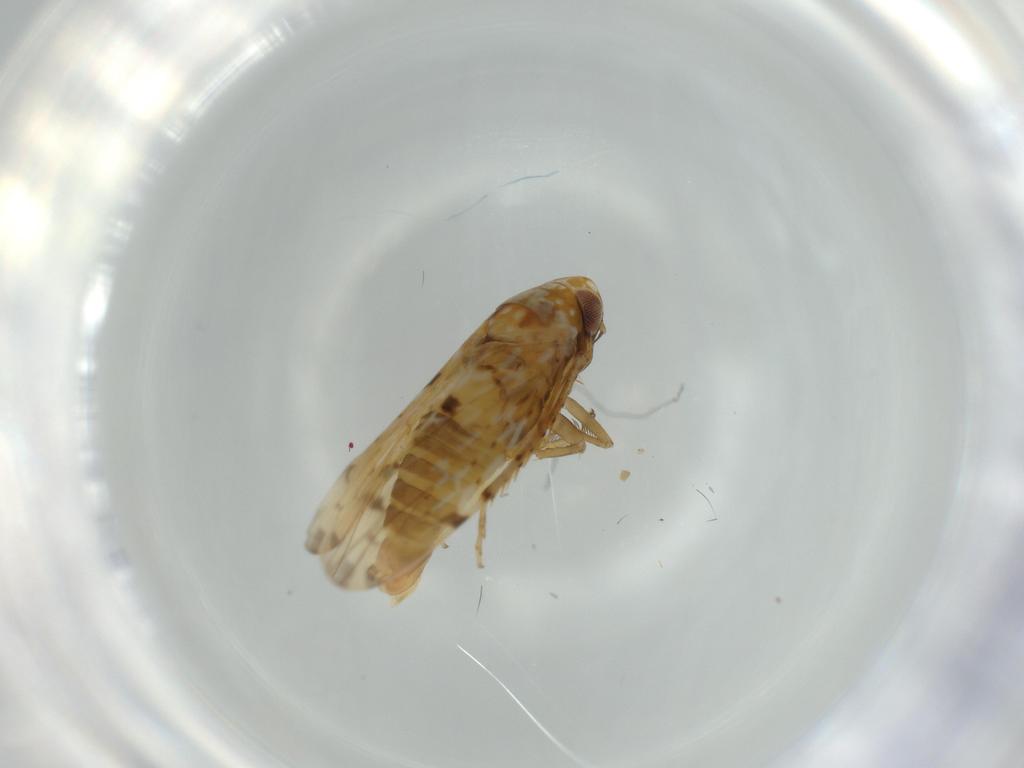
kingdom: Animalia
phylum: Arthropoda
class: Insecta
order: Hemiptera
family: Cicadellidae
